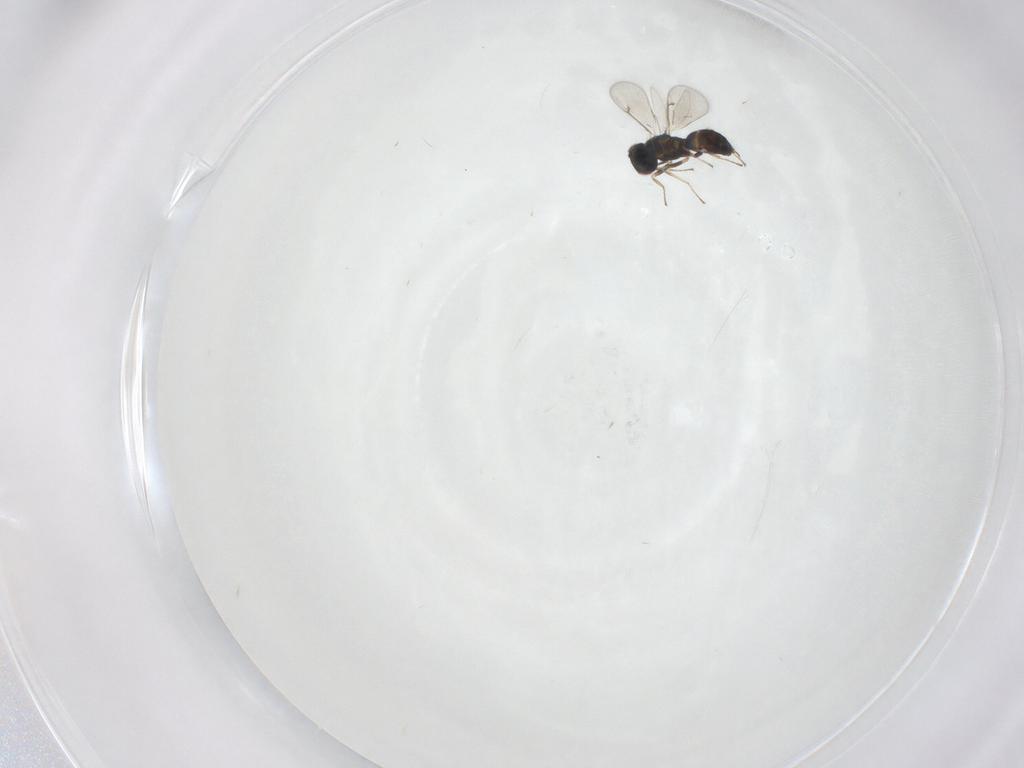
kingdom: Animalia
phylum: Arthropoda
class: Insecta
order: Hymenoptera
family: Eulophidae
